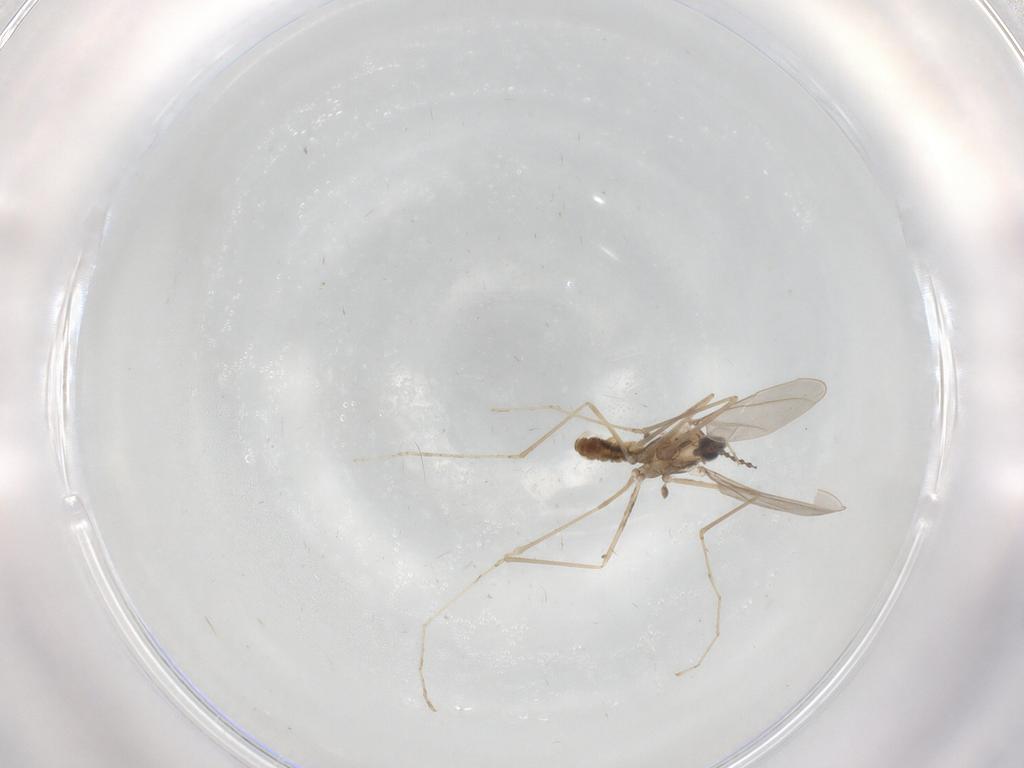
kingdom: Animalia
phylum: Arthropoda
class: Insecta
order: Diptera
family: Cecidomyiidae
